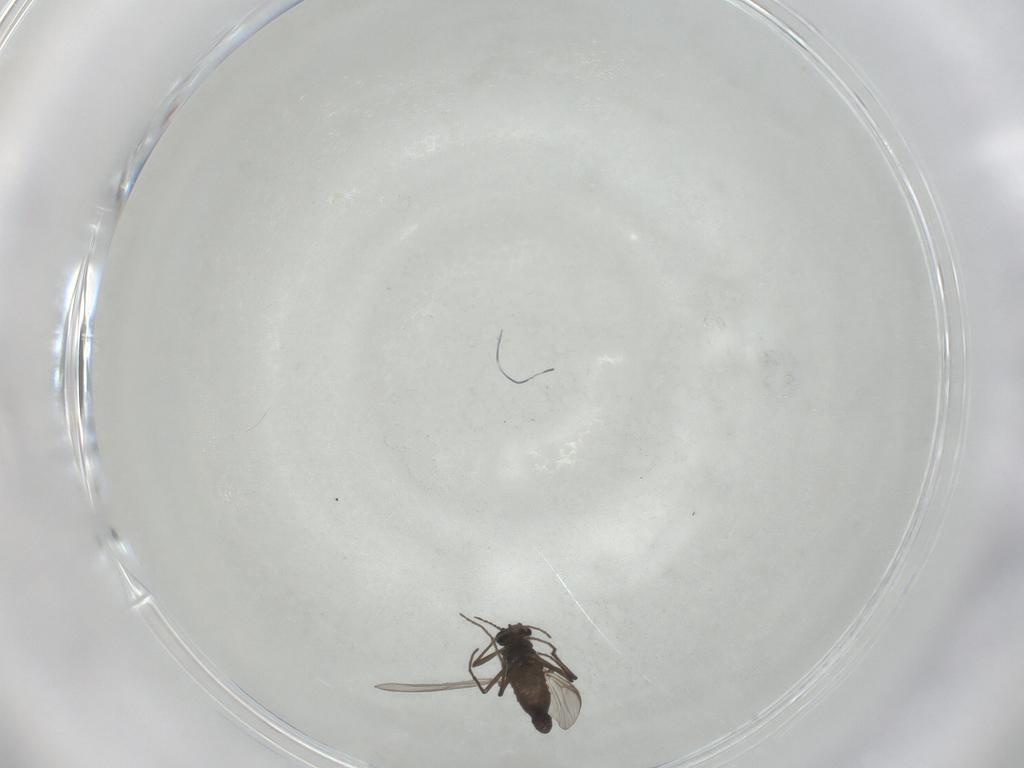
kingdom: Animalia
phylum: Arthropoda
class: Insecta
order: Diptera
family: Chironomidae
